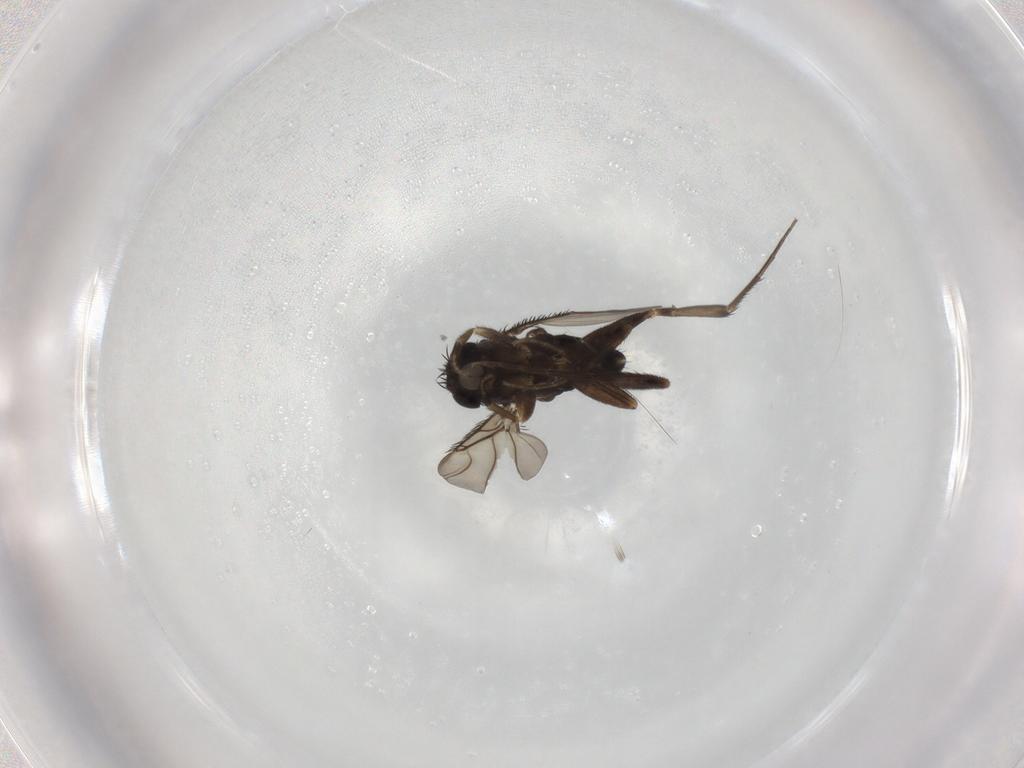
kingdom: Animalia
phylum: Arthropoda
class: Insecta
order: Diptera
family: Phoridae
